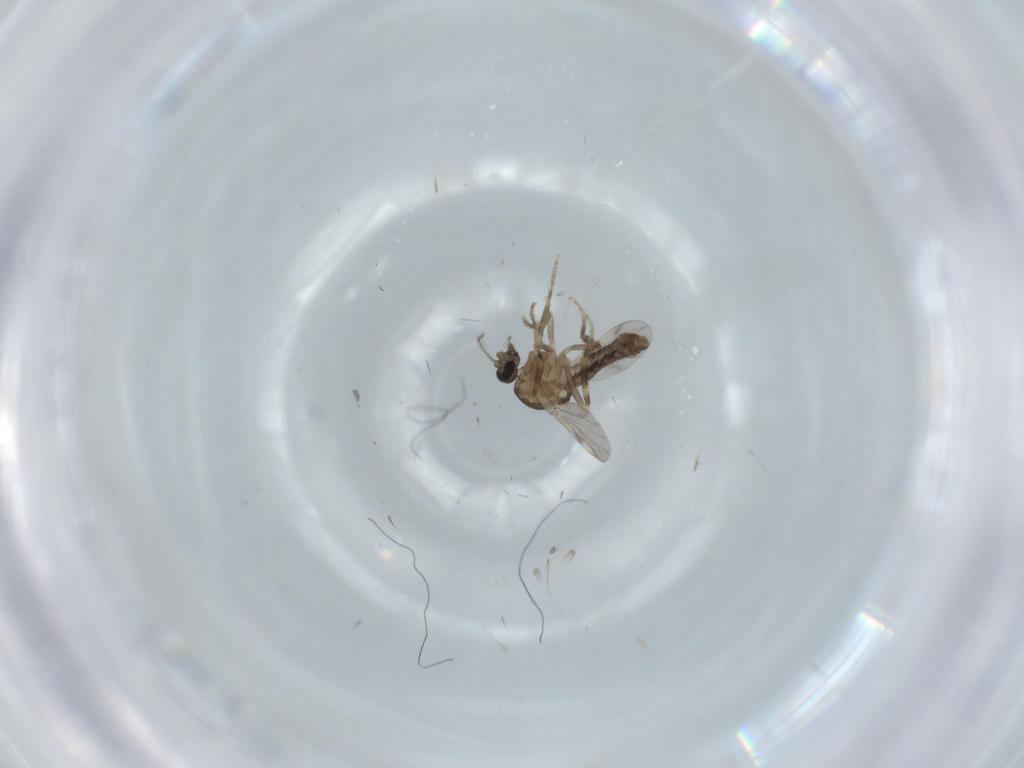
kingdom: Animalia
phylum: Arthropoda
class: Insecta
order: Diptera
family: Ceratopogonidae
